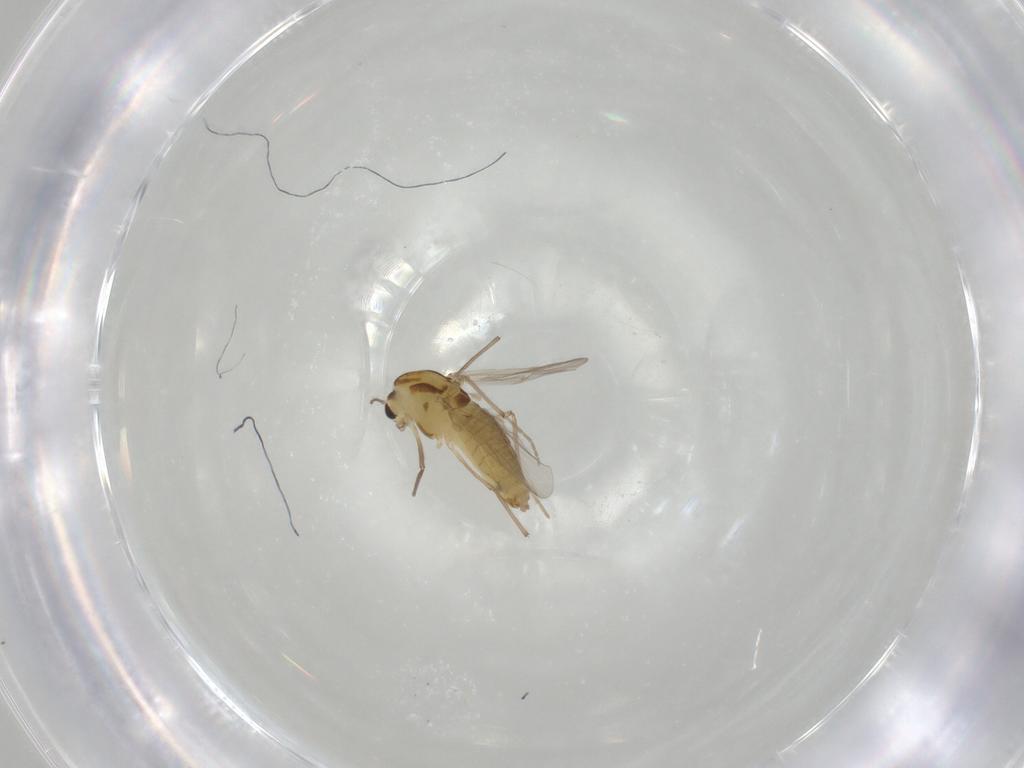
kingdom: Animalia
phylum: Arthropoda
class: Insecta
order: Diptera
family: Chironomidae
